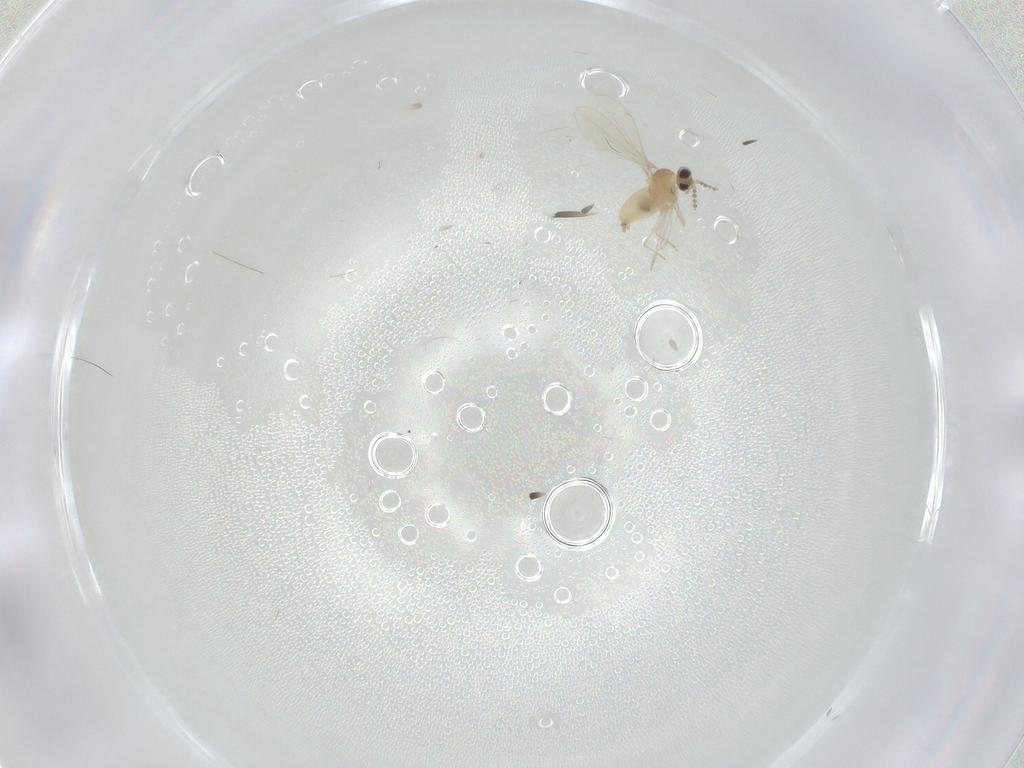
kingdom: Animalia
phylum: Arthropoda
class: Insecta
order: Diptera
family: Cecidomyiidae
